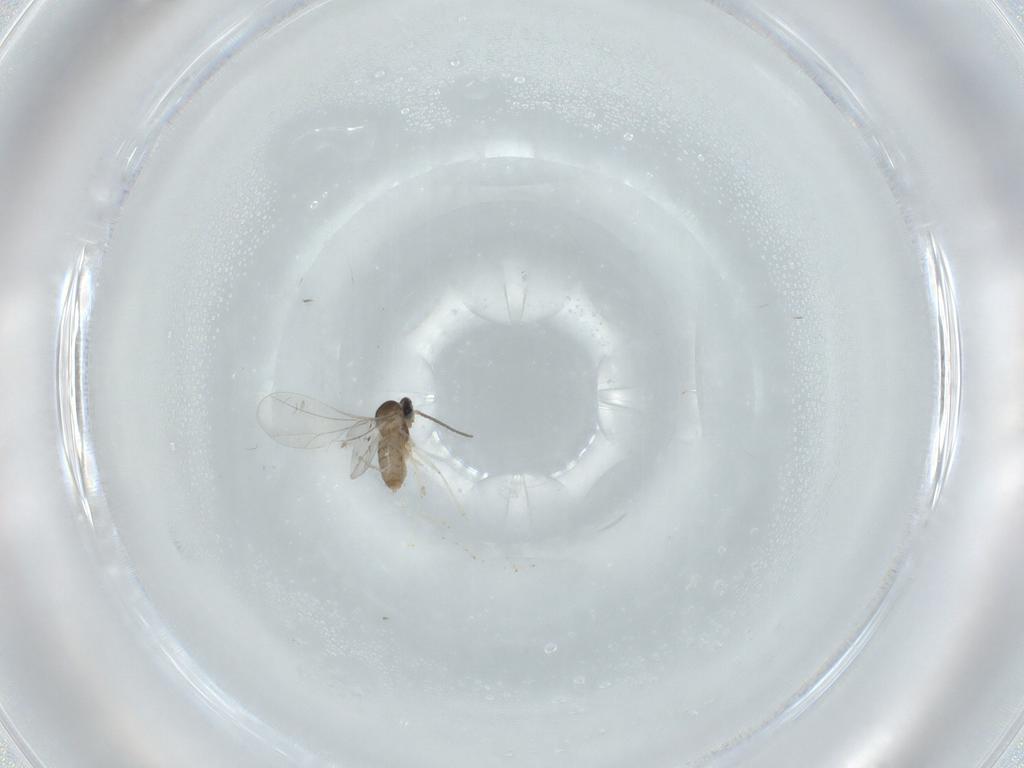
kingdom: Animalia
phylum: Arthropoda
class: Insecta
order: Diptera
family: Cecidomyiidae
